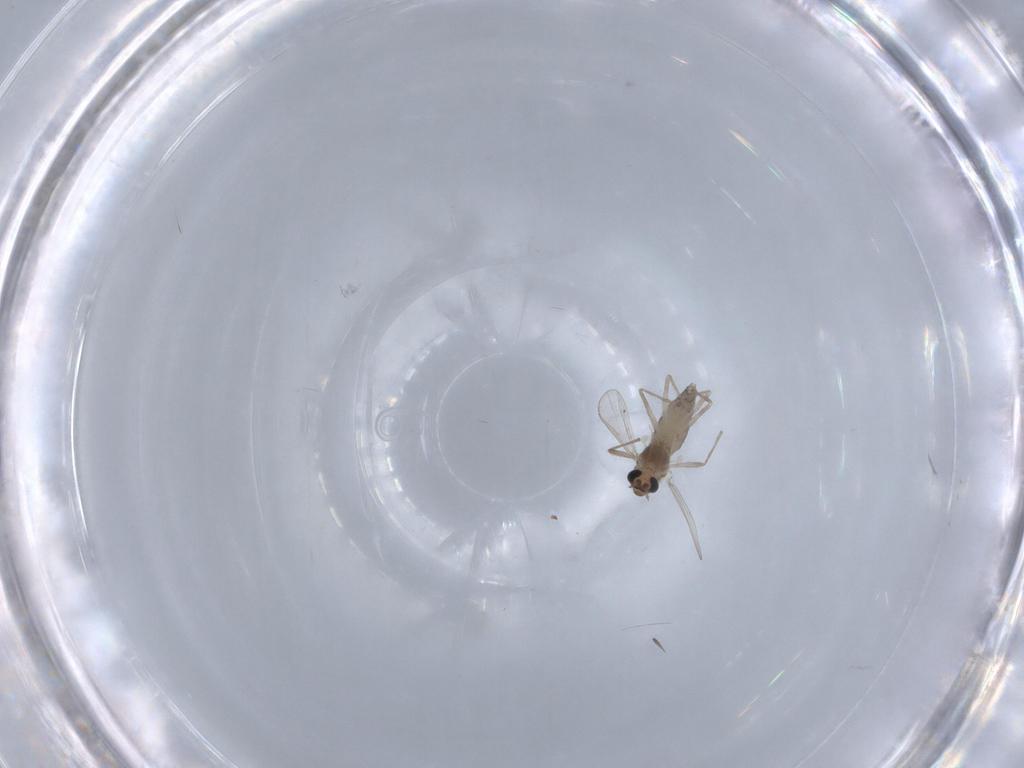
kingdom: Animalia
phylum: Arthropoda
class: Insecta
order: Diptera
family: Chironomidae
